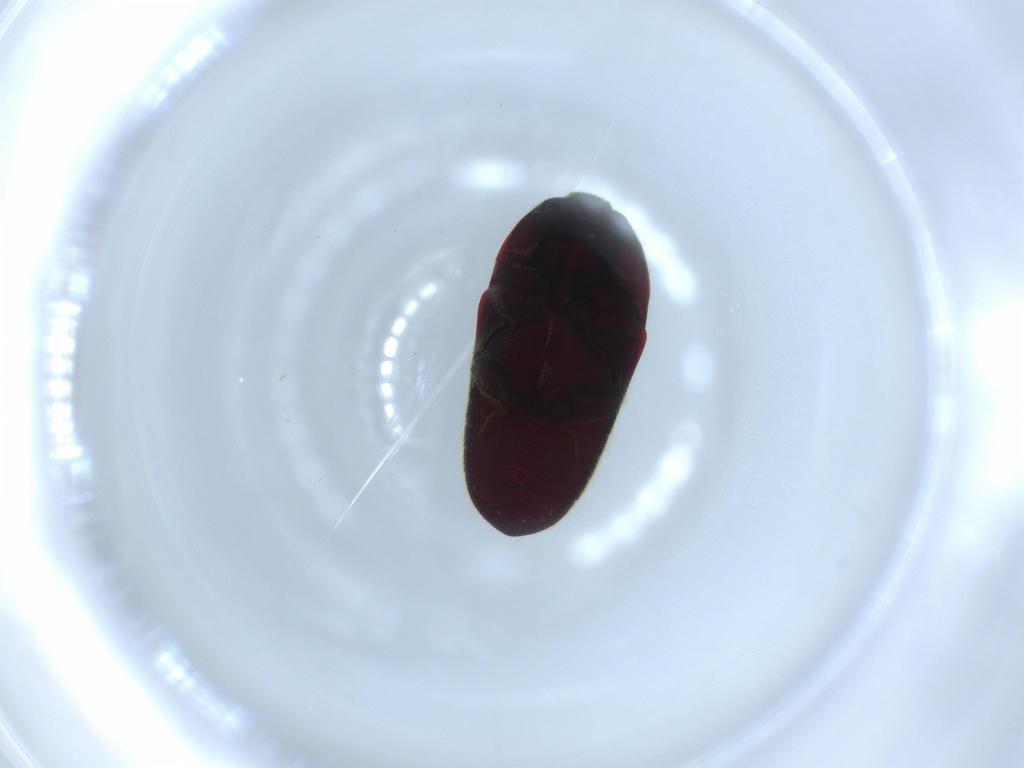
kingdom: Animalia
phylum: Arthropoda
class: Insecta
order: Coleoptera
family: Throscidae
